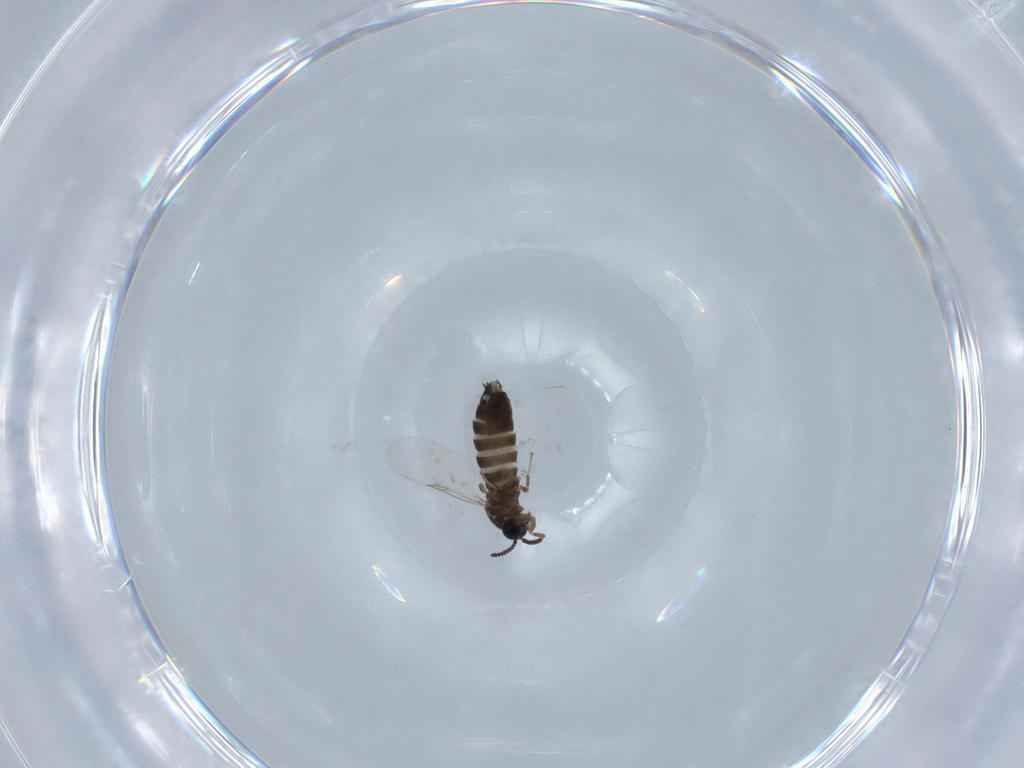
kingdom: Animalia
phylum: Arthropoda
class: Insecta
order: Diptera
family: Scatopsidae
